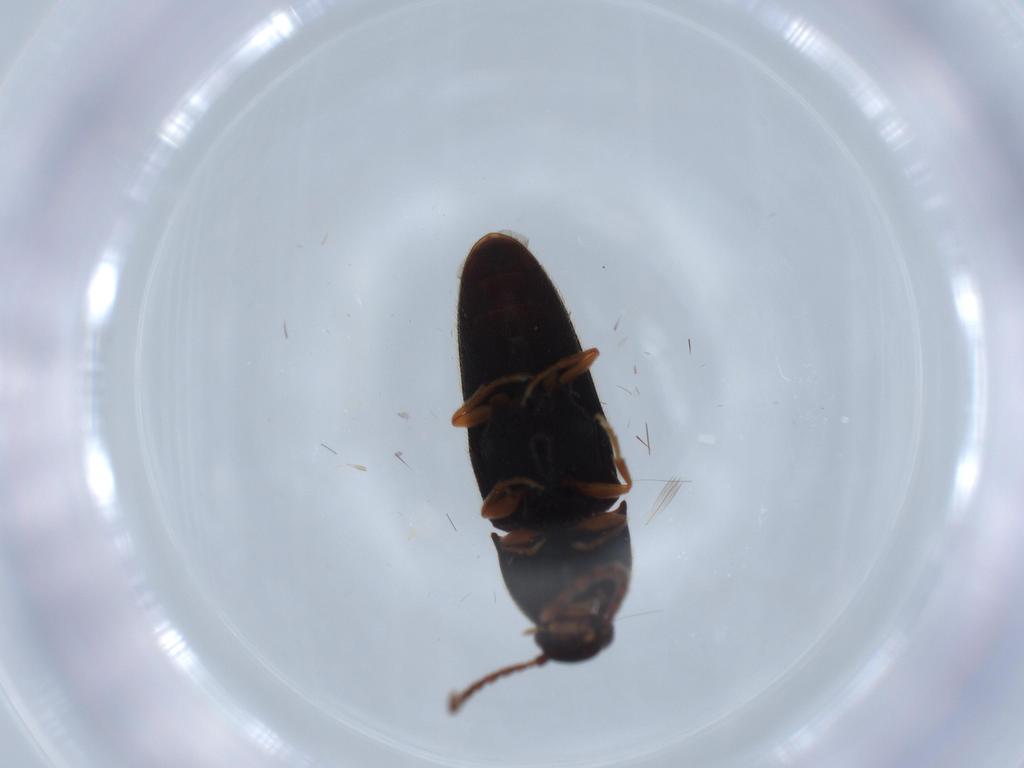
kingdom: Animalia
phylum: Arthropoda
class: Insecta
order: Coleoptera
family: Elateridae
